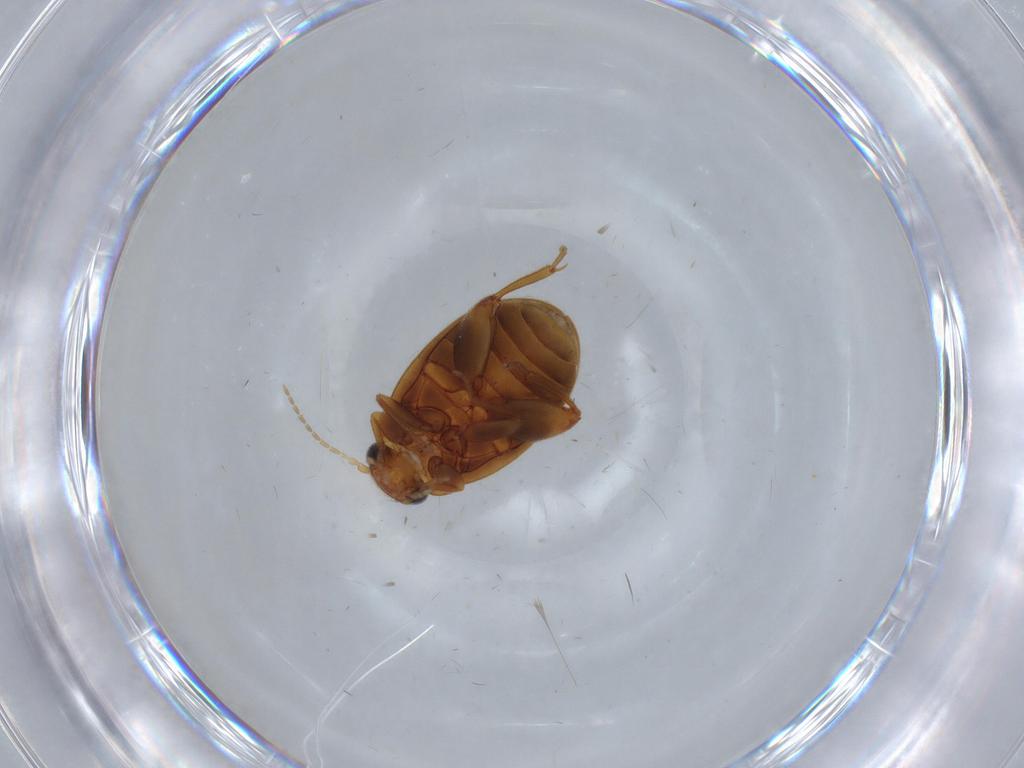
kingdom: Animalia
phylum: Arthropoda
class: Insecta
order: Coleoptera
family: Scirtidae
